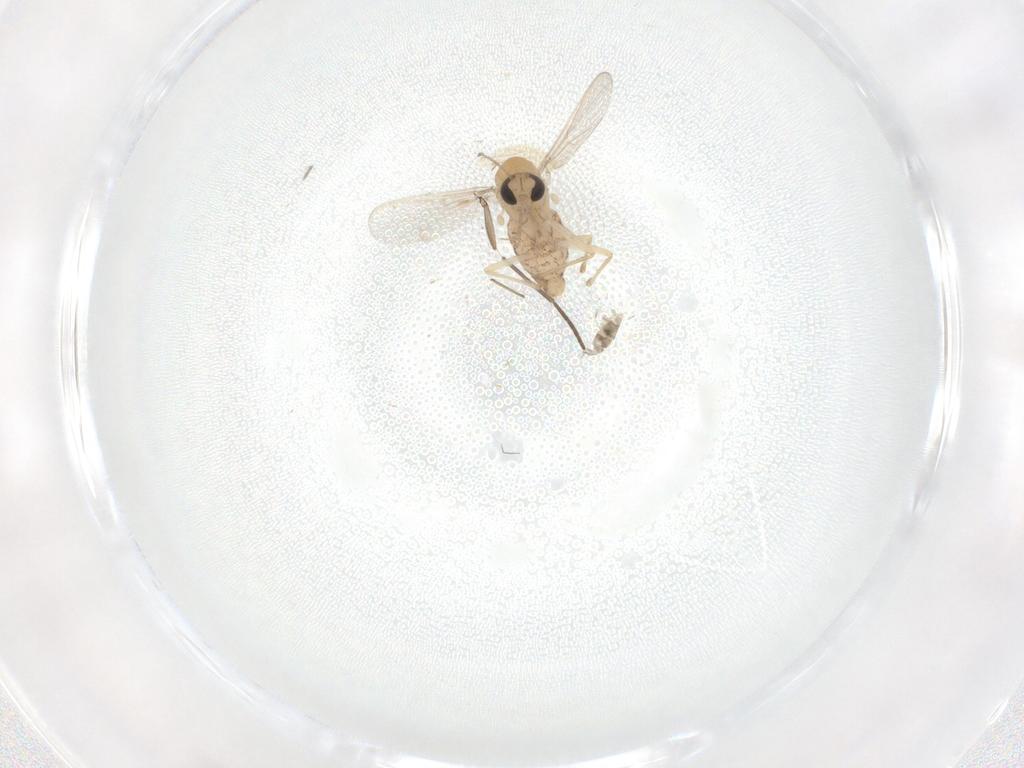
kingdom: Animalia
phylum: Arthropoda
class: Insecta
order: Diptera
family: Chironomidae
